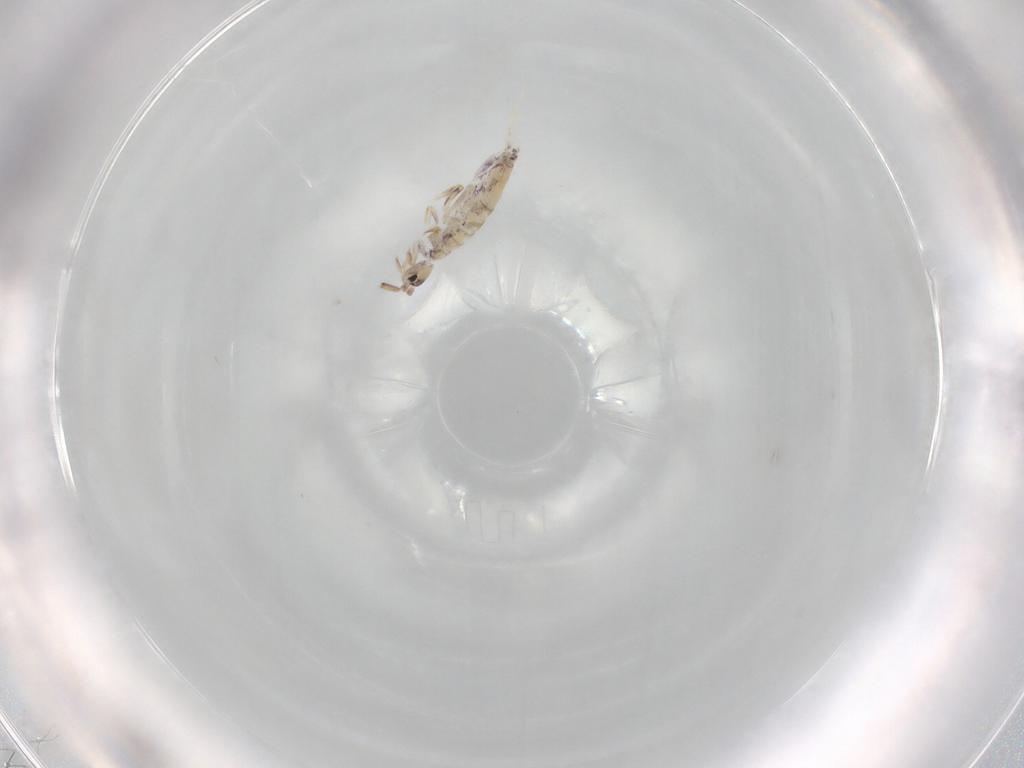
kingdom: Animalia
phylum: Arthropoda
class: Collembola
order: Entomobryomorpha
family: Entomobryidae
